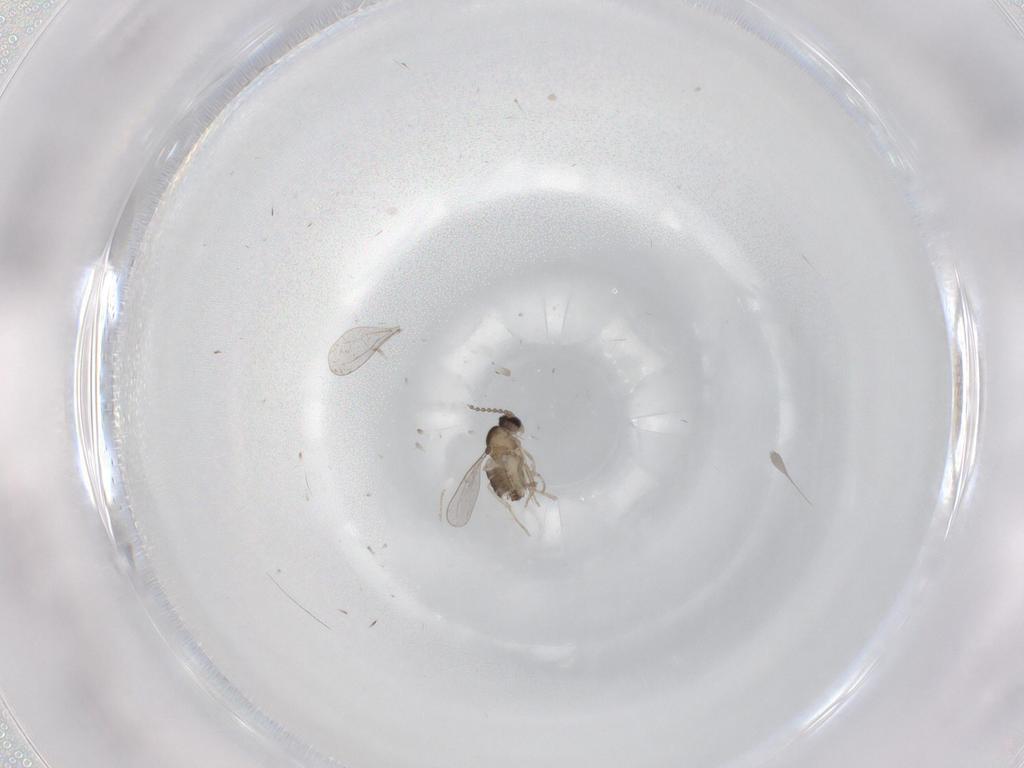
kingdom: Animalia
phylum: Arthropoda
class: Insecta
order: Diptera
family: Cecidomyiidae
